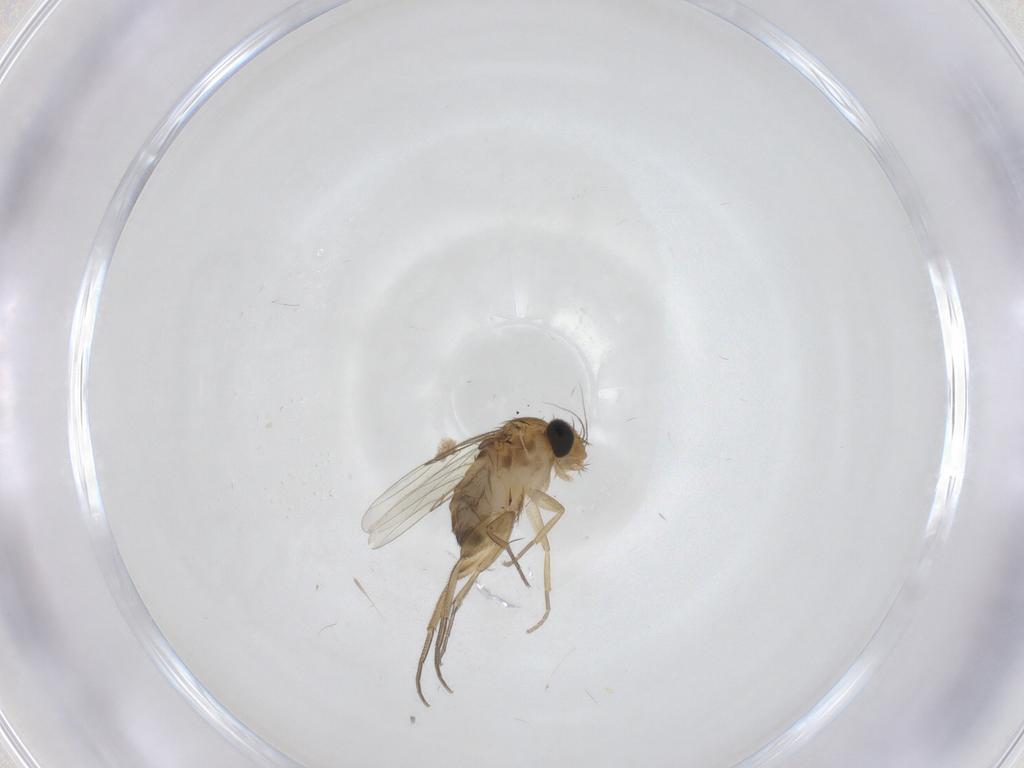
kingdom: Animalia
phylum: Arthropoda
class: Insecta
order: Diptera
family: Phoridae
